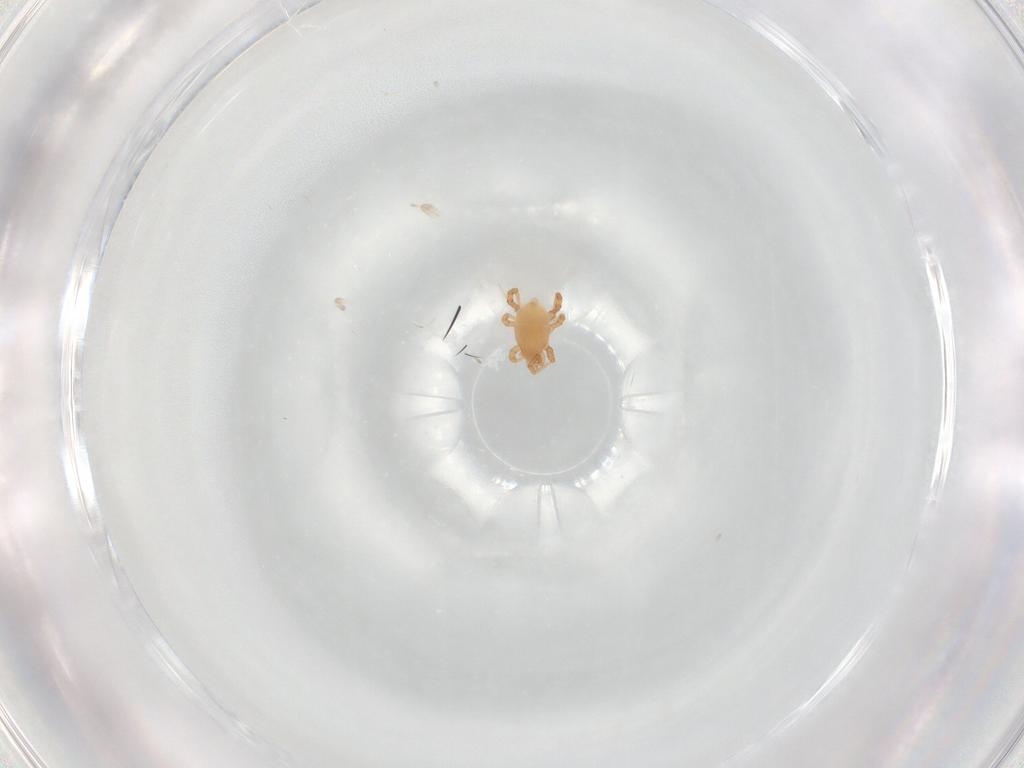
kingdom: Animalia
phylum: Arthropoda
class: Arachnida
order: Mesostigmata
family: Parasitidae
